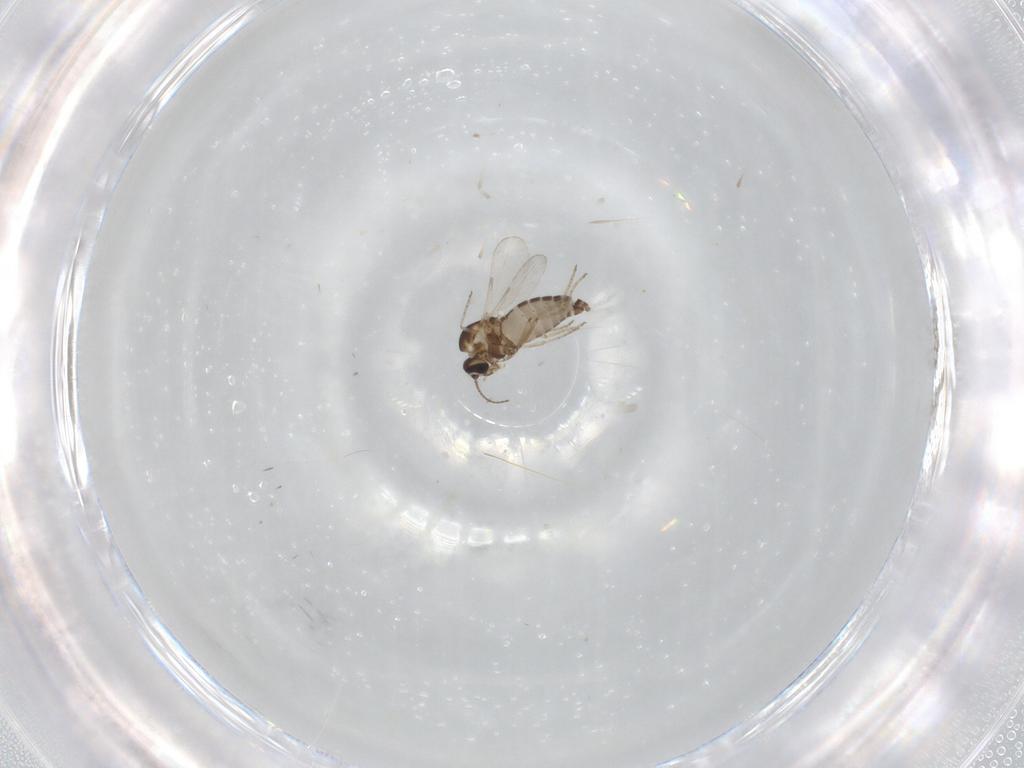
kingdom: Animalia
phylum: Arthropoda
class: Insecta
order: Diptera
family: Ceratopogonidae
